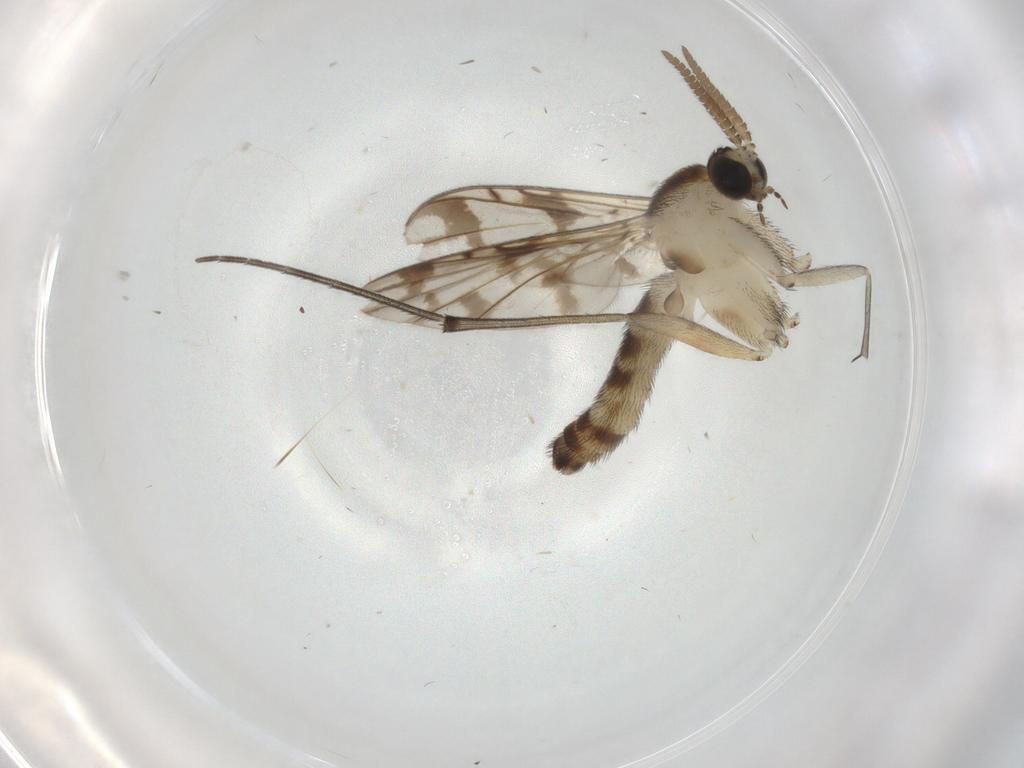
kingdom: Animalia
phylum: Arthropoda
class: Insecta
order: Diptera
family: Psychodidae
